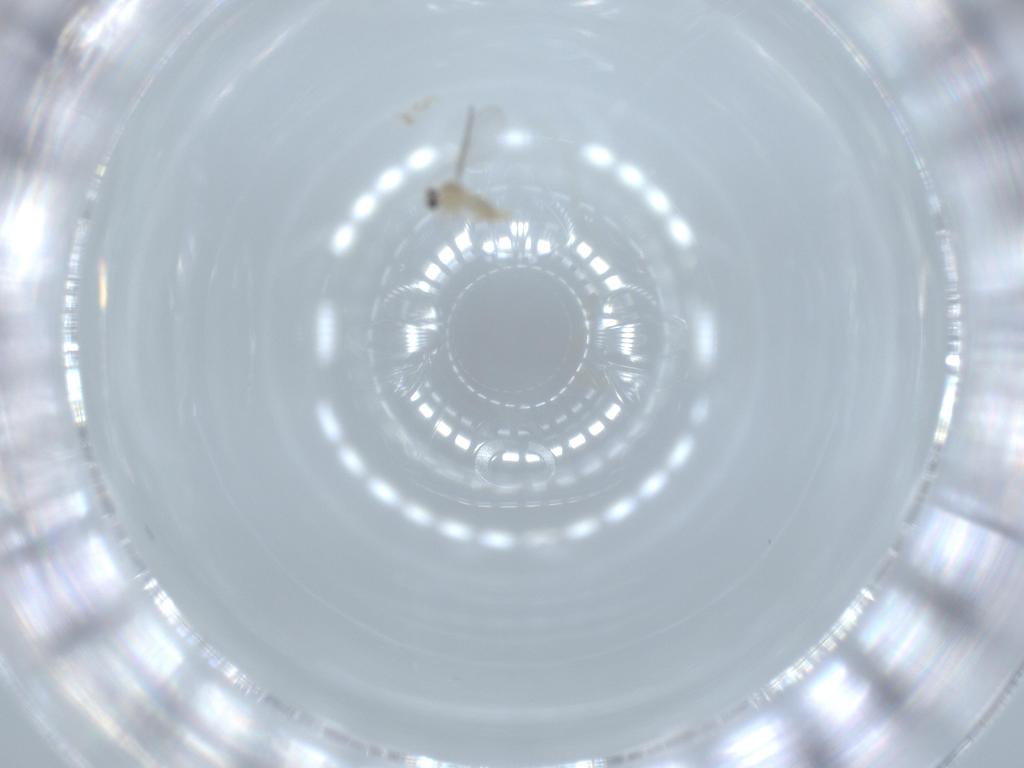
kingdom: Animalia
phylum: Arthropoda
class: Insecta
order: Diptera
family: Cecidomyiidae
